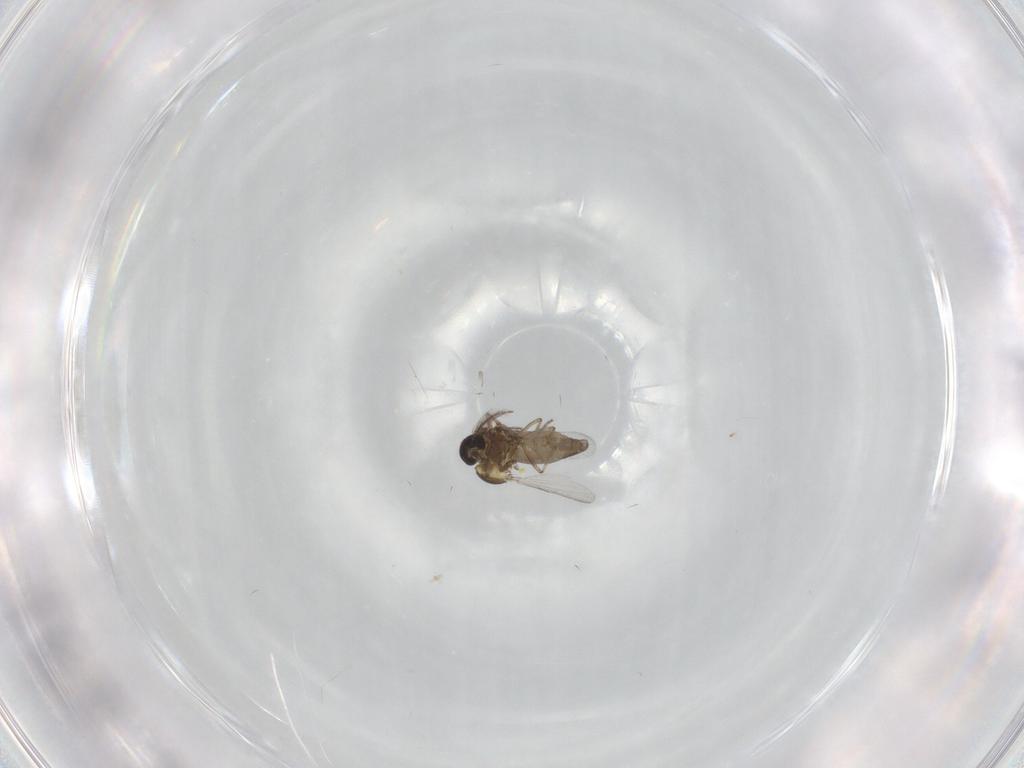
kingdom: Animalia
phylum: Arthropoda
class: Insecta
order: Diptera
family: Ceratopogonidae
